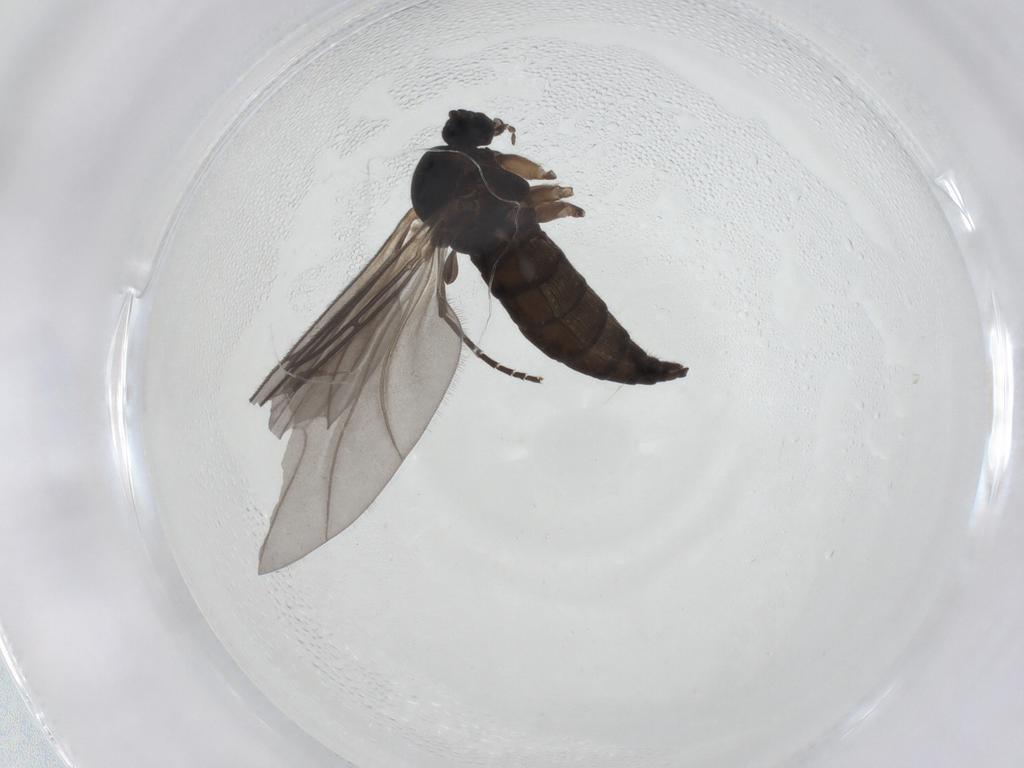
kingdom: Animalia
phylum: Arthropoda
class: Insecta
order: Diptera
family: Sciaridae
